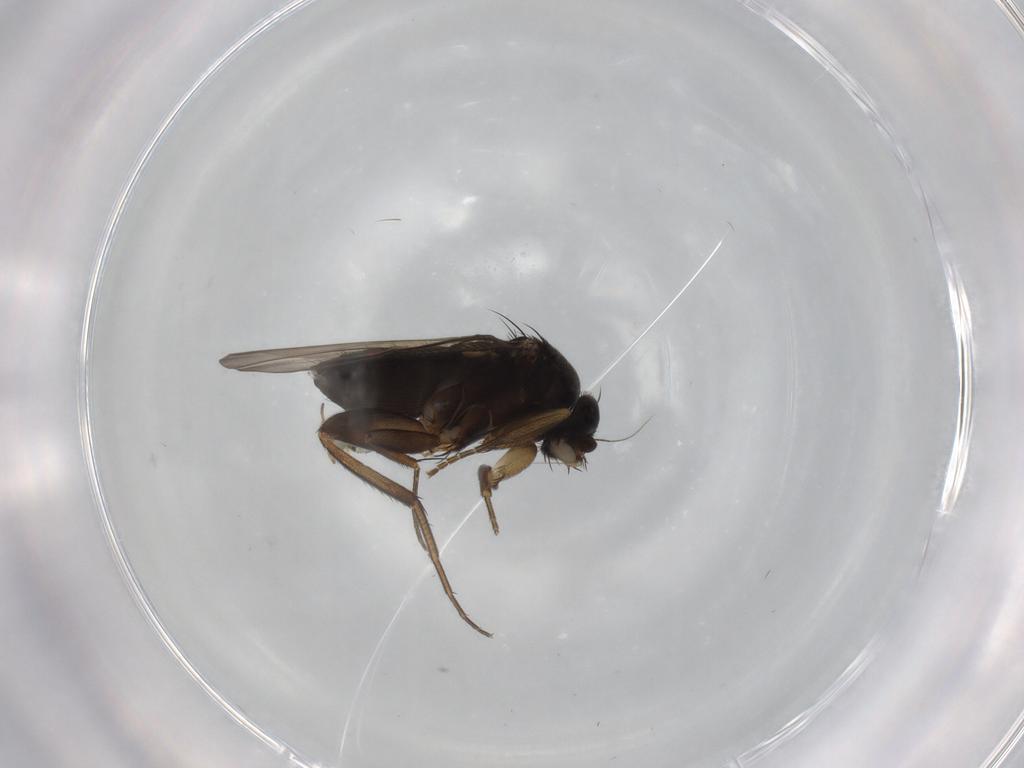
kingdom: Animalia
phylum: Arthropoda
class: Insecta
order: Diptera
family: Phoridae
